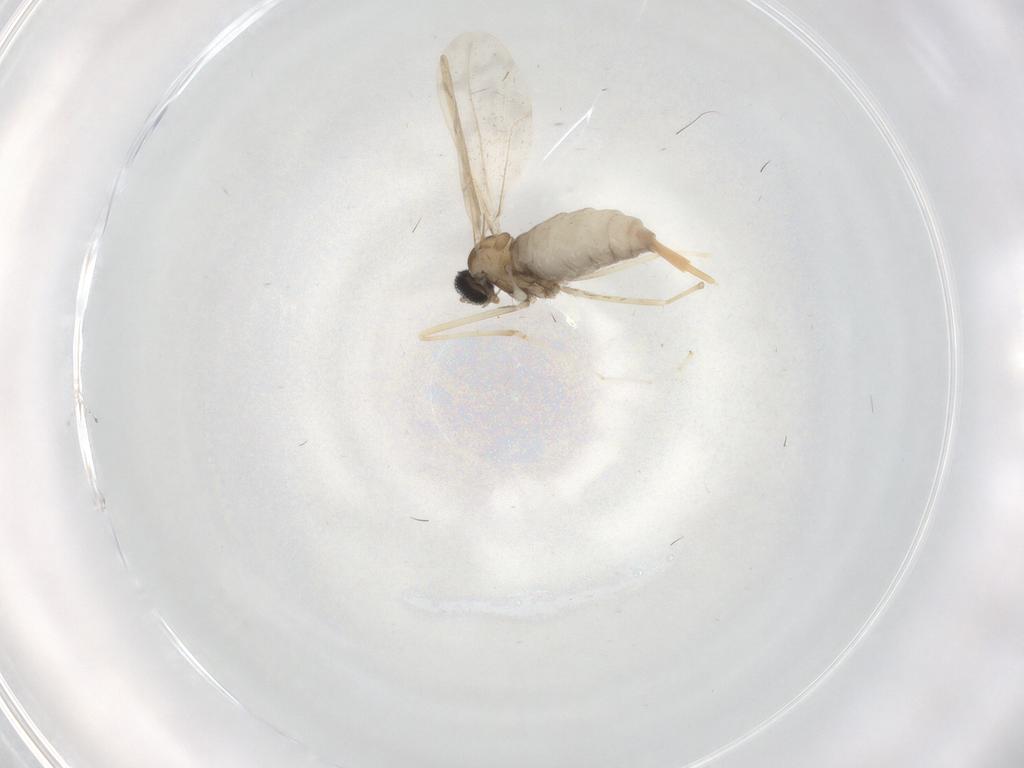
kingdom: Animalia
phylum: Arthropoda
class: Insecta
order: Diptera
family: Cecidomyiidae
